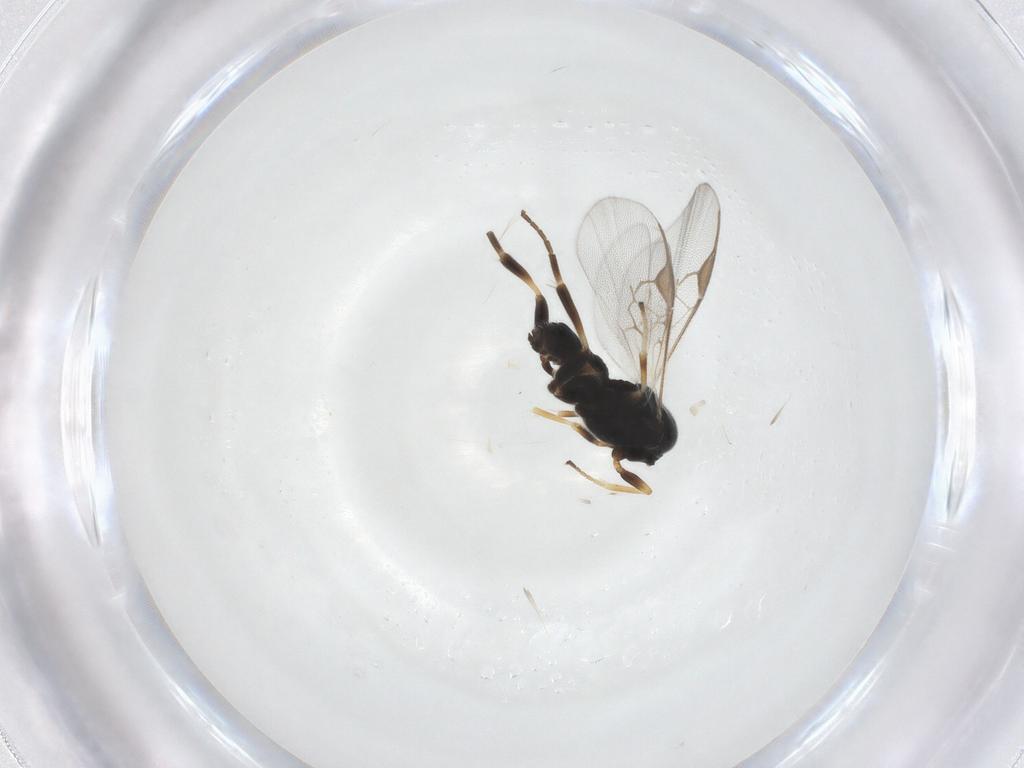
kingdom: Animalia
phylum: Arthropoda
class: Insecta
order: Hymenoptera
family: Braconidae
